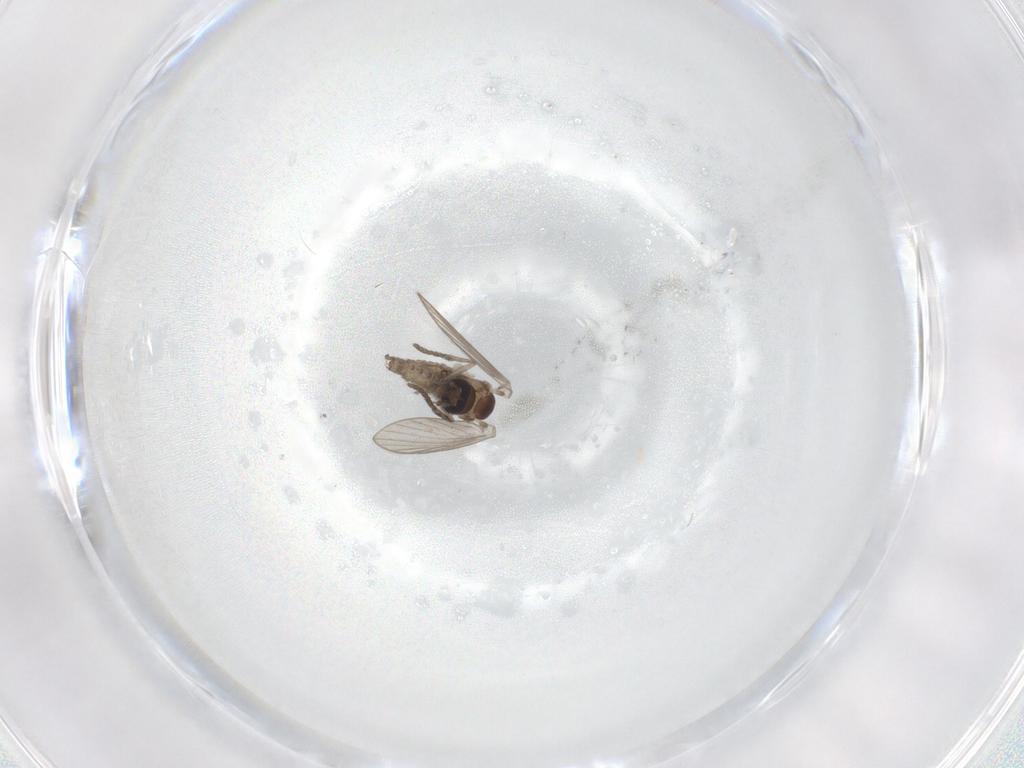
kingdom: Animalia
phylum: Arthropoda
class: Insecta
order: Diptera
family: Psychodidae
